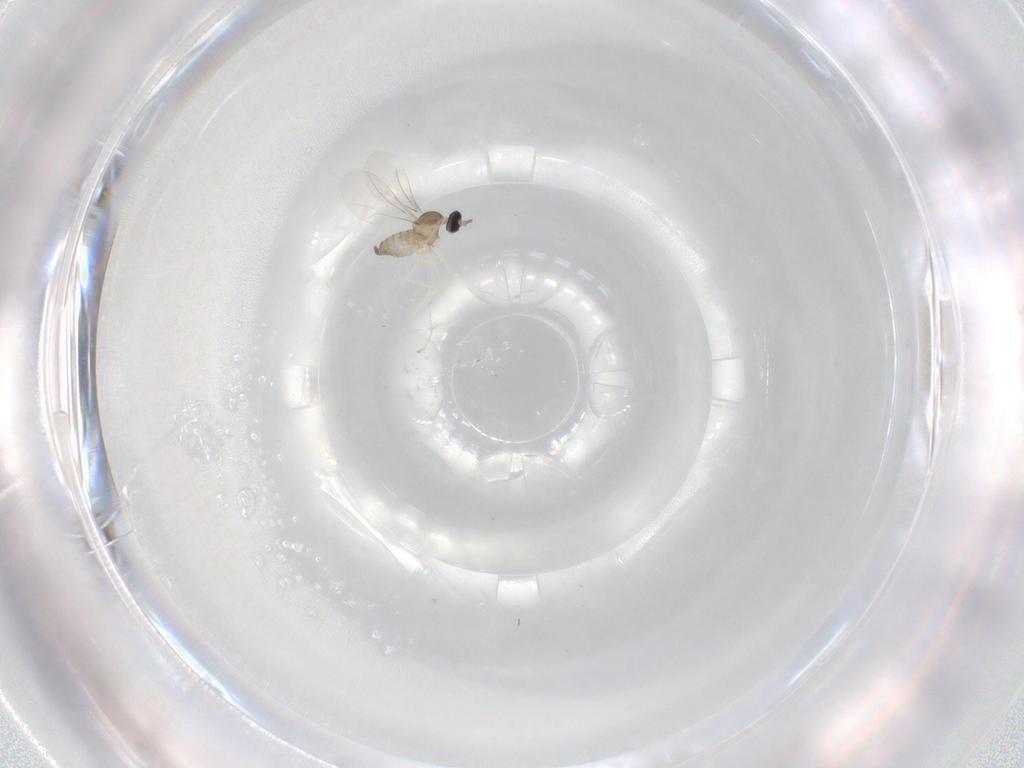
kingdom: Animalia
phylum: Arthropoda
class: Insecta
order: Diptera
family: Cecidomyiidae
